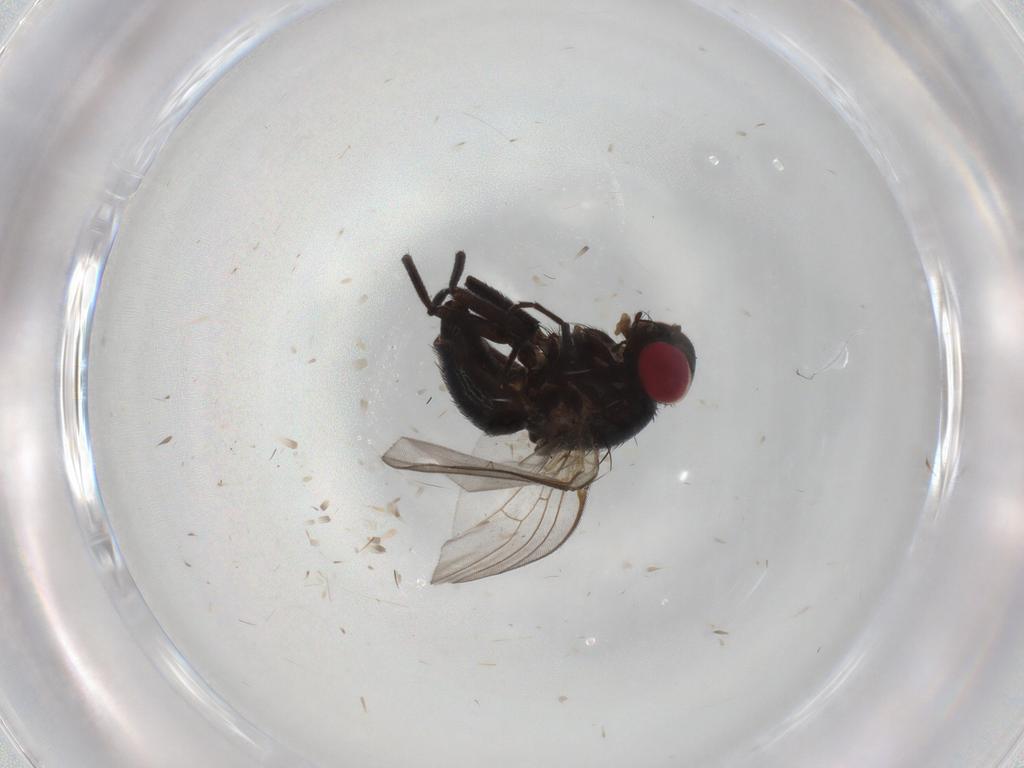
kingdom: Animalia
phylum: Arthropoda
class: Insecta
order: Diptera
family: Agromyzidae
